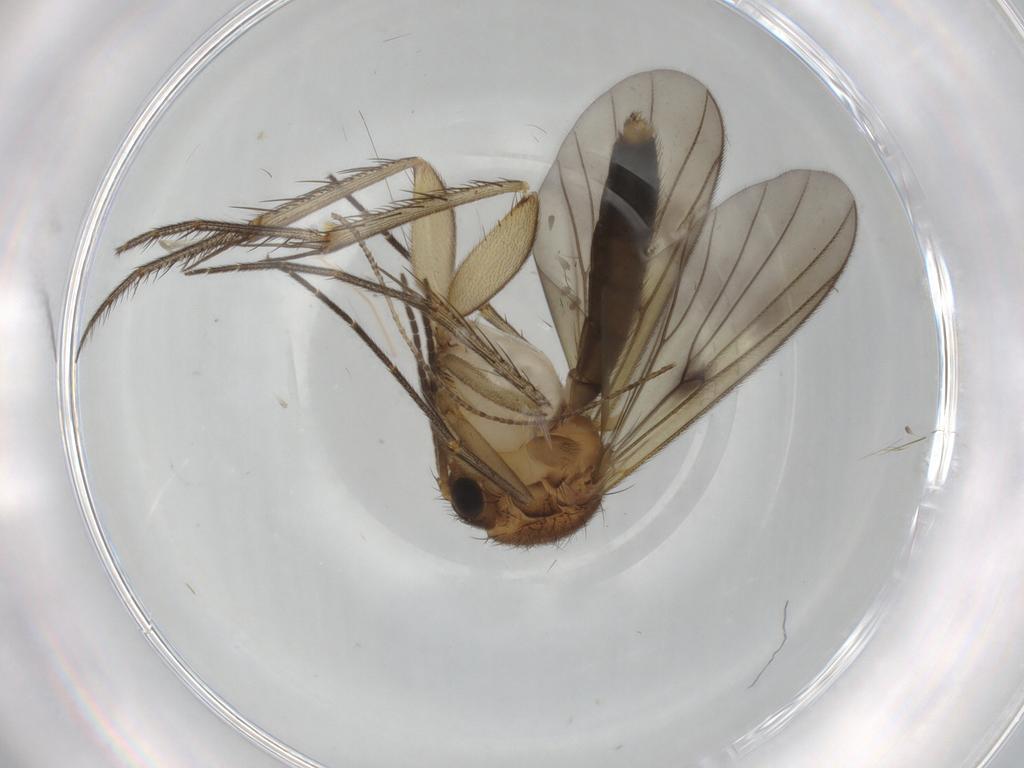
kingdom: Animalia
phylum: Arthropoda
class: Insecta
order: Diptera
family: Mycetophilidae
